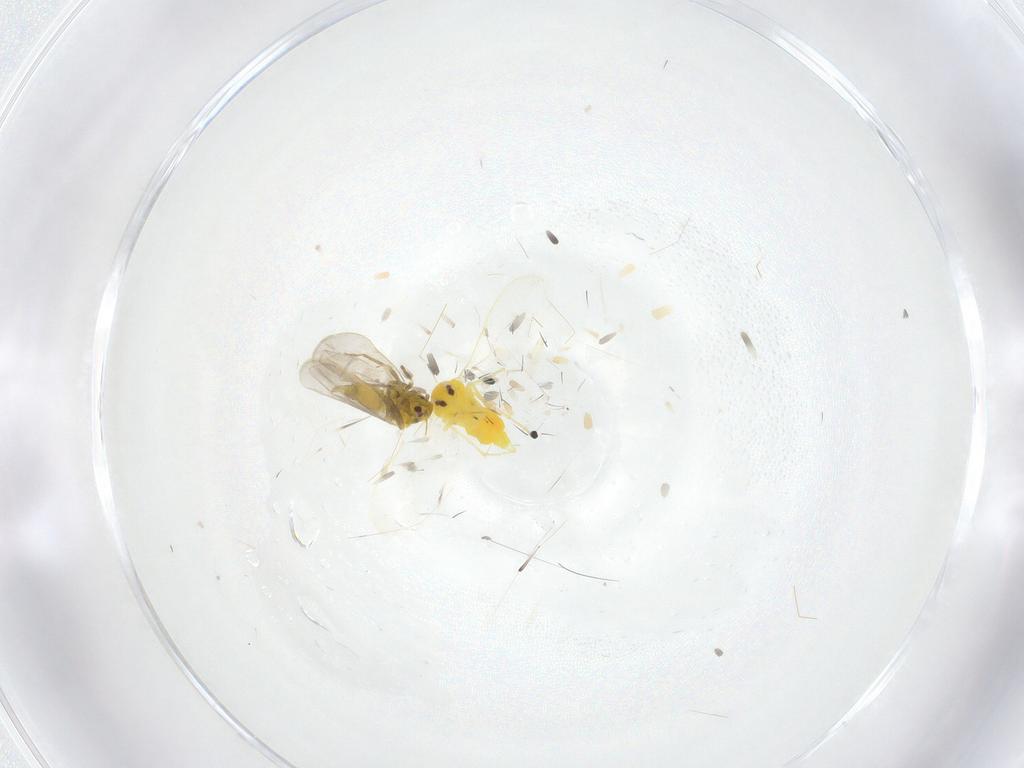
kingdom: Animalia
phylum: Arthropoda
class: Insecta
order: Hemiptera
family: Aleyrodidae
